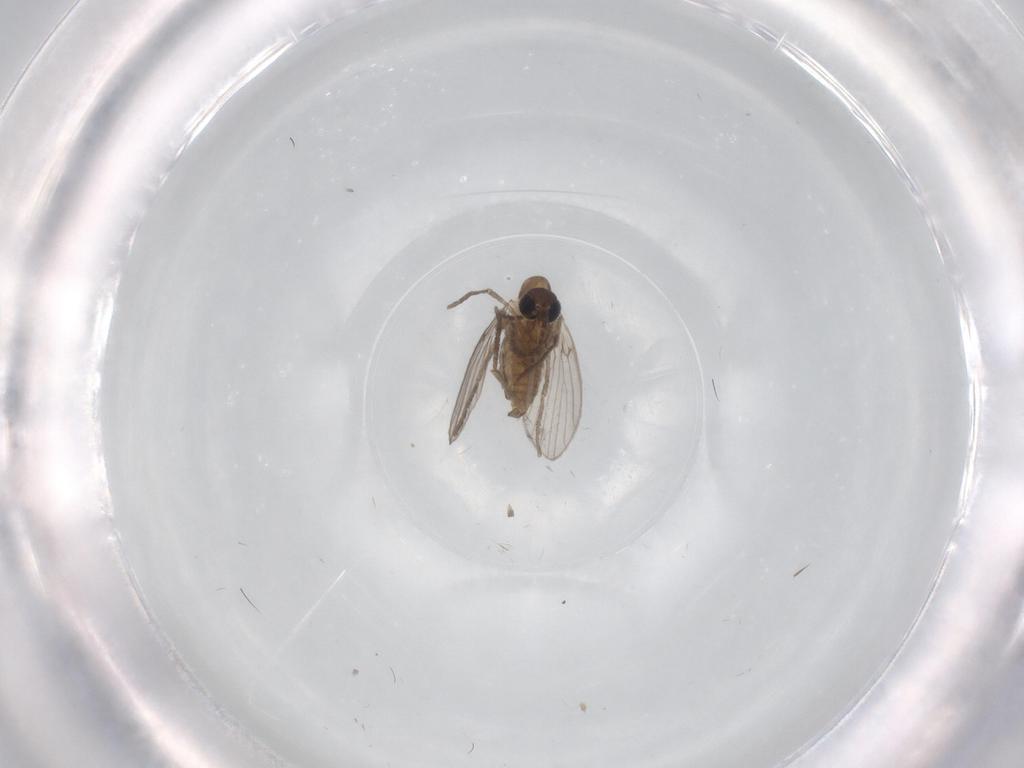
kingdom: Animalia
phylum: Arthropoda
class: Insecta
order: Diptera
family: Psychodidae
